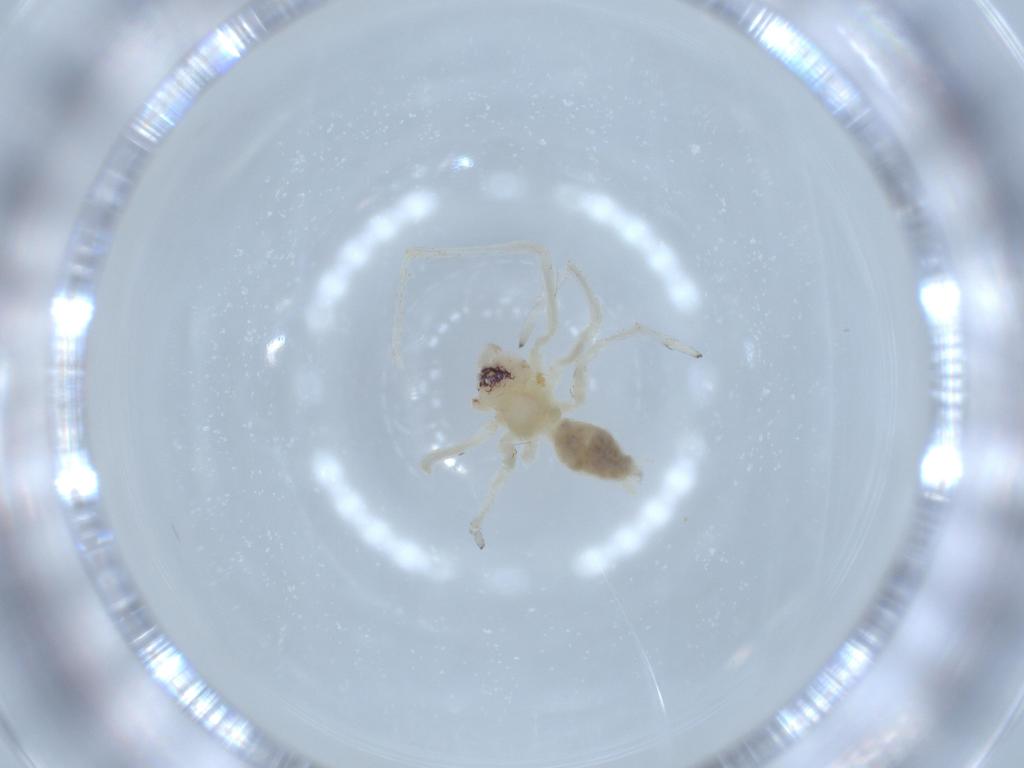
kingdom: Animalia
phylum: Arthropoda
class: Arachnida
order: Araneae
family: Anyphaenidae
